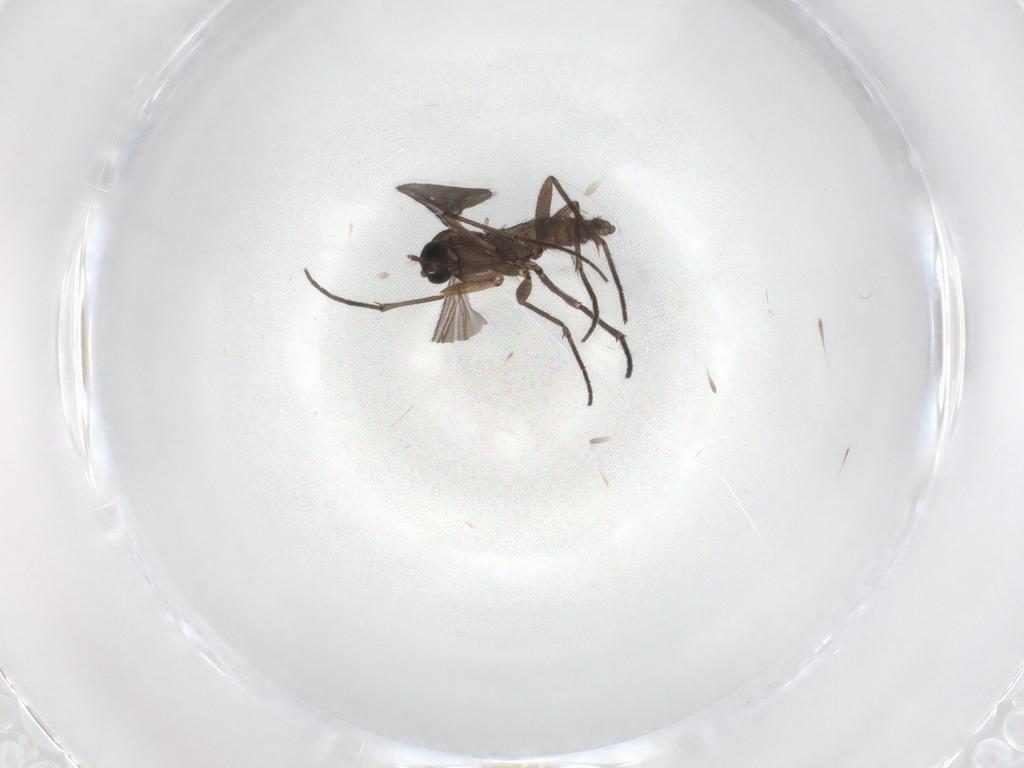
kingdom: Animalia
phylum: Arthropoda
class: Insecta
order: Diptera
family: Sciaridae
